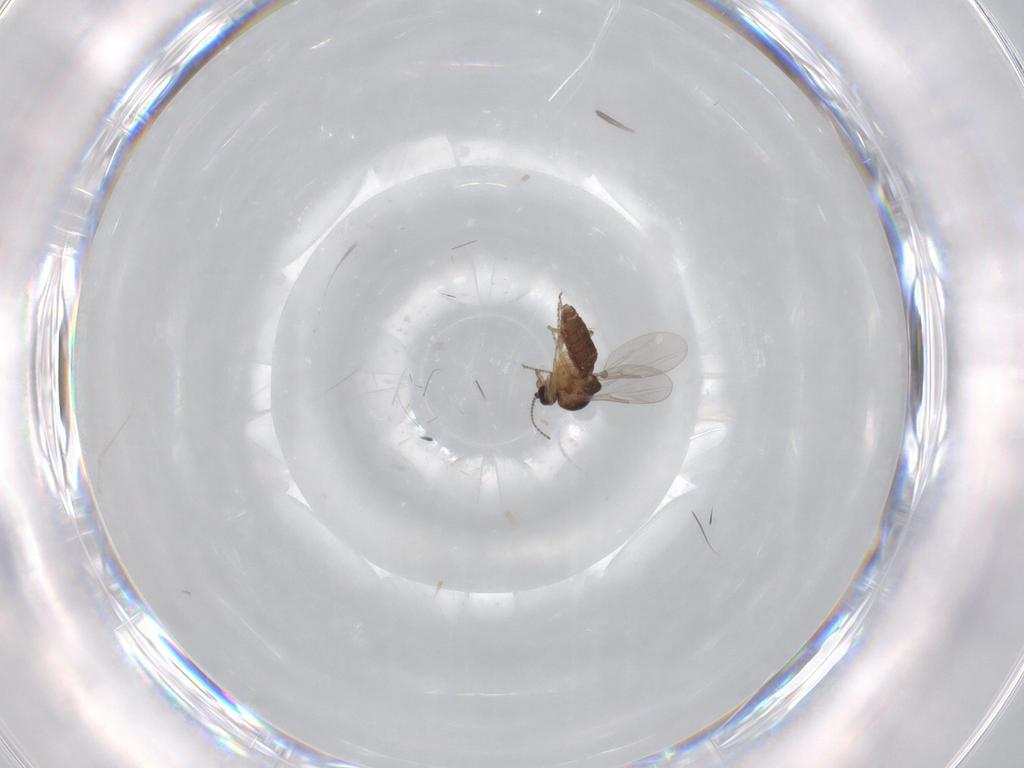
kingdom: Animalia
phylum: Arthropoda
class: Insecta
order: Diptera
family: Ceratopogonidae
